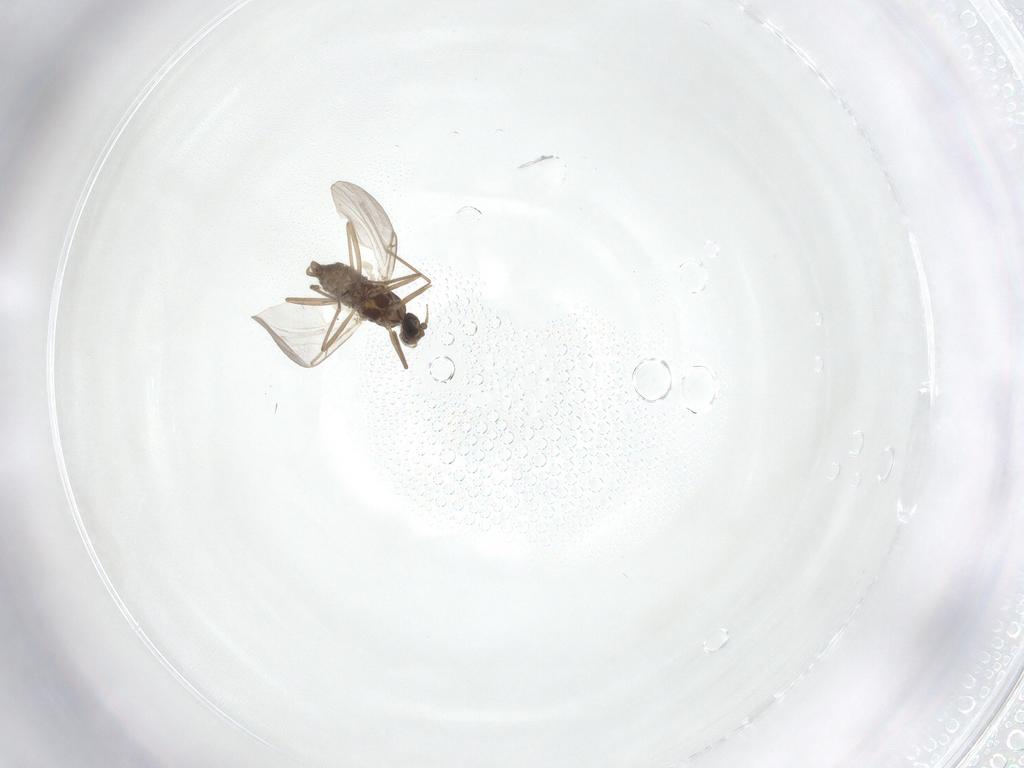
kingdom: Animalia
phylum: Arthropoda
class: Insecta
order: Diptera
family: Cecidomyiidae
